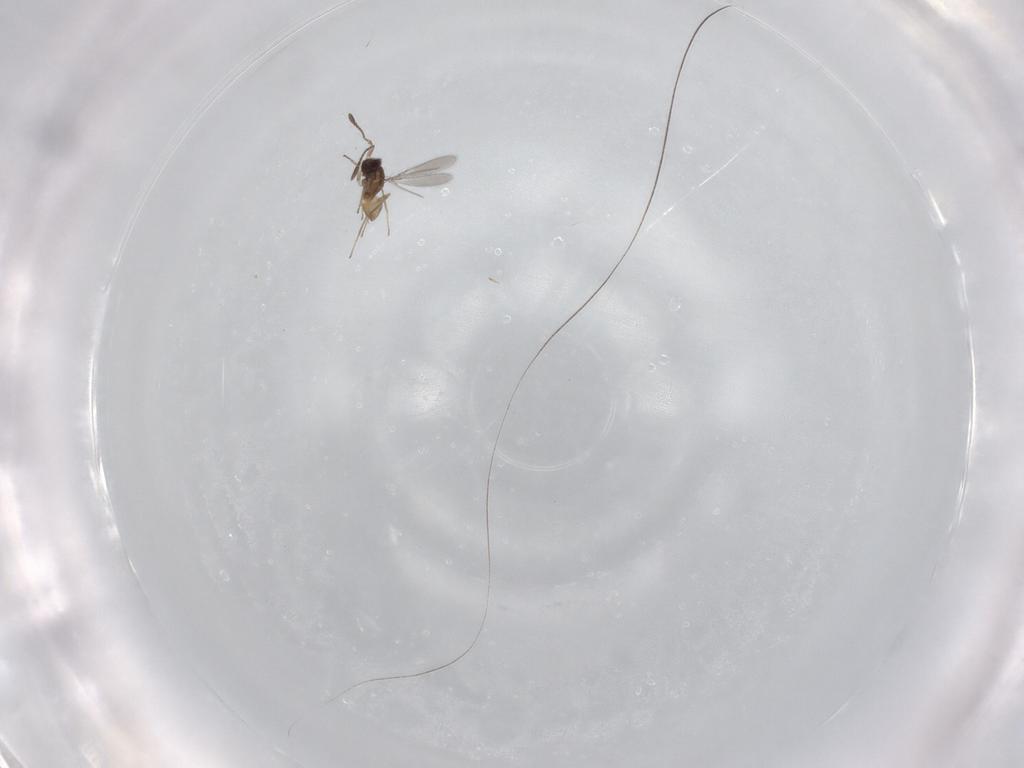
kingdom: Animalia
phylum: Arthropoda
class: Insecta
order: Hymenoptera
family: Mymaridae
